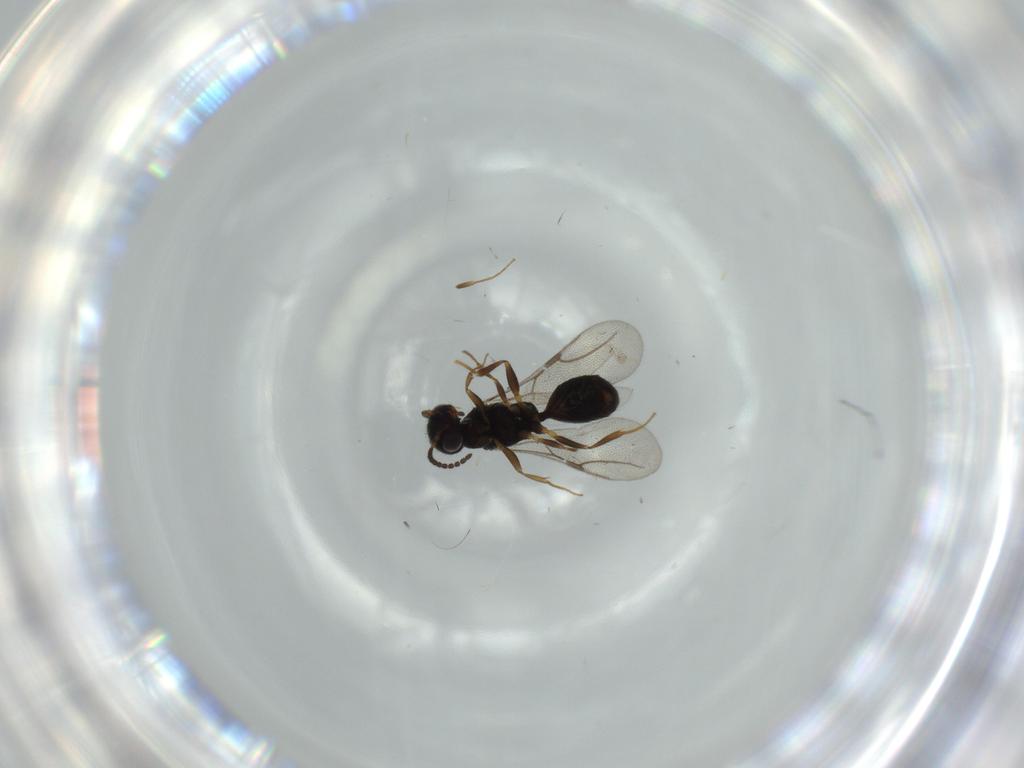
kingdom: Animalia
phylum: Arthropoda
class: Insecta
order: Hymenoptera
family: Bethylidae
